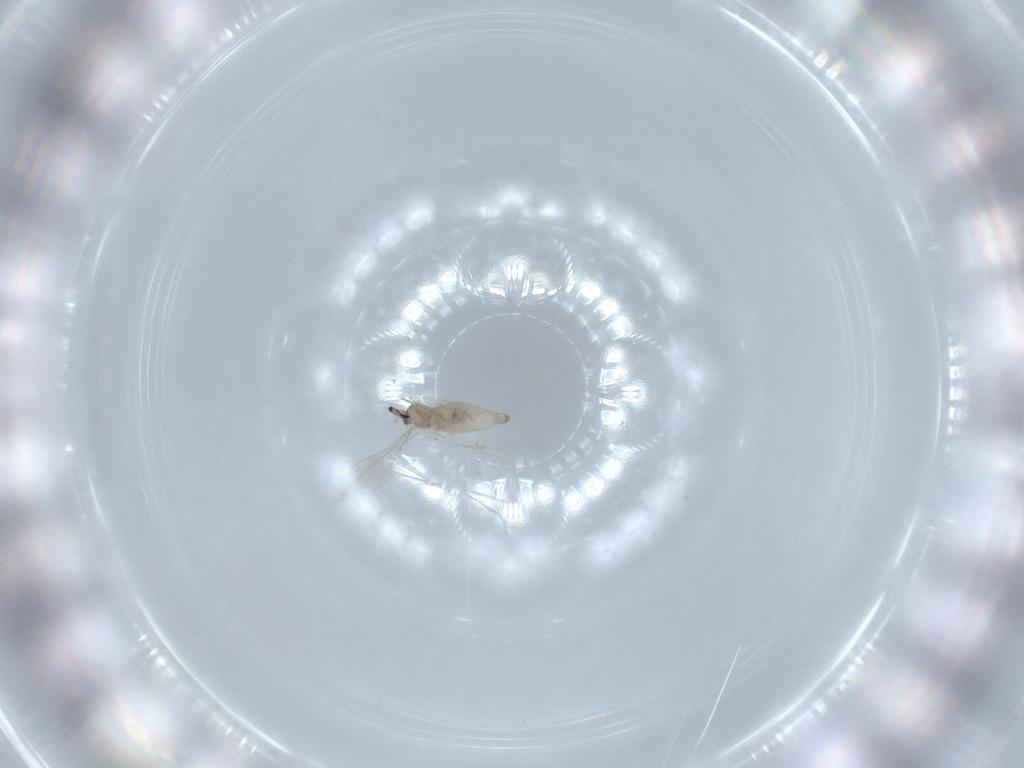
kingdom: Animalia
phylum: Arthropoda
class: Insecta
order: Diptera
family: Cecidomyiidae
